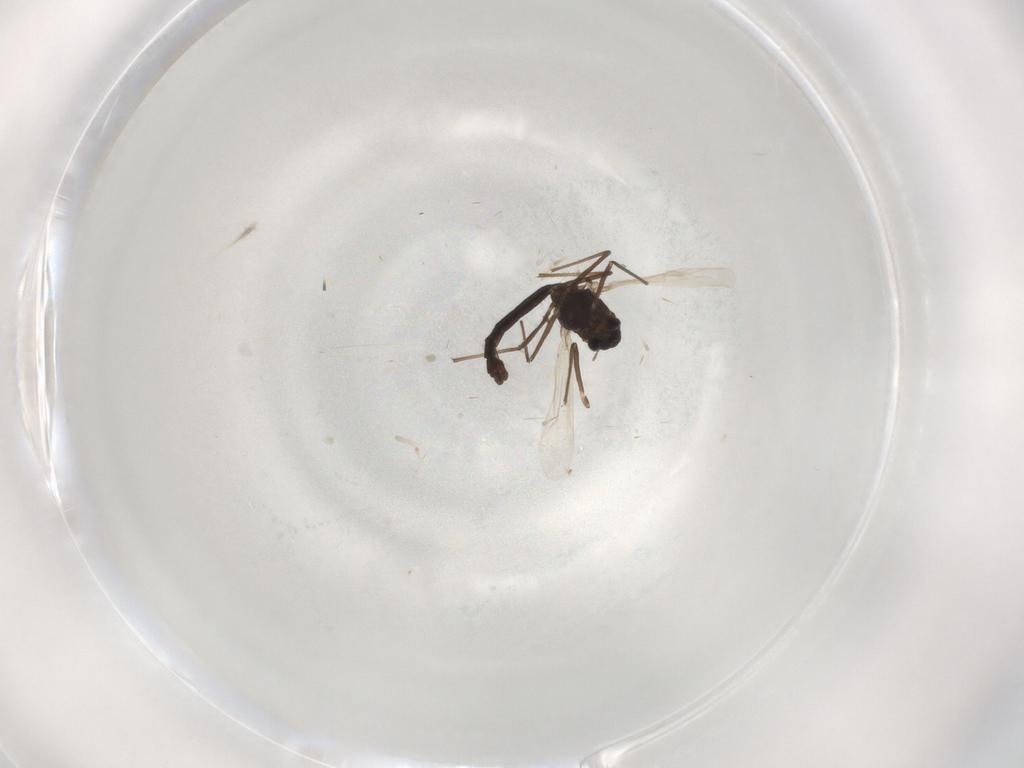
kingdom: Animalia
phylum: Arthropoda
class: Insecta
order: Diptera
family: Chironomidae
